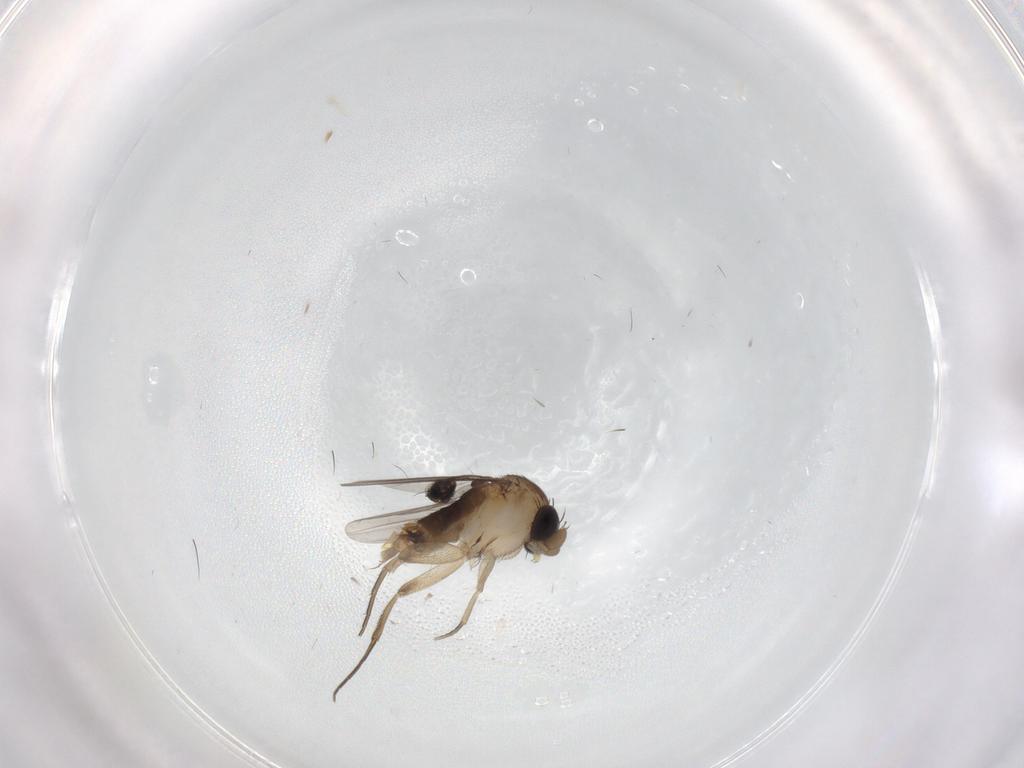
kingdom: Animalia
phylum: Arthropoda
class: Insecta
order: Diptera
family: Phoridae
